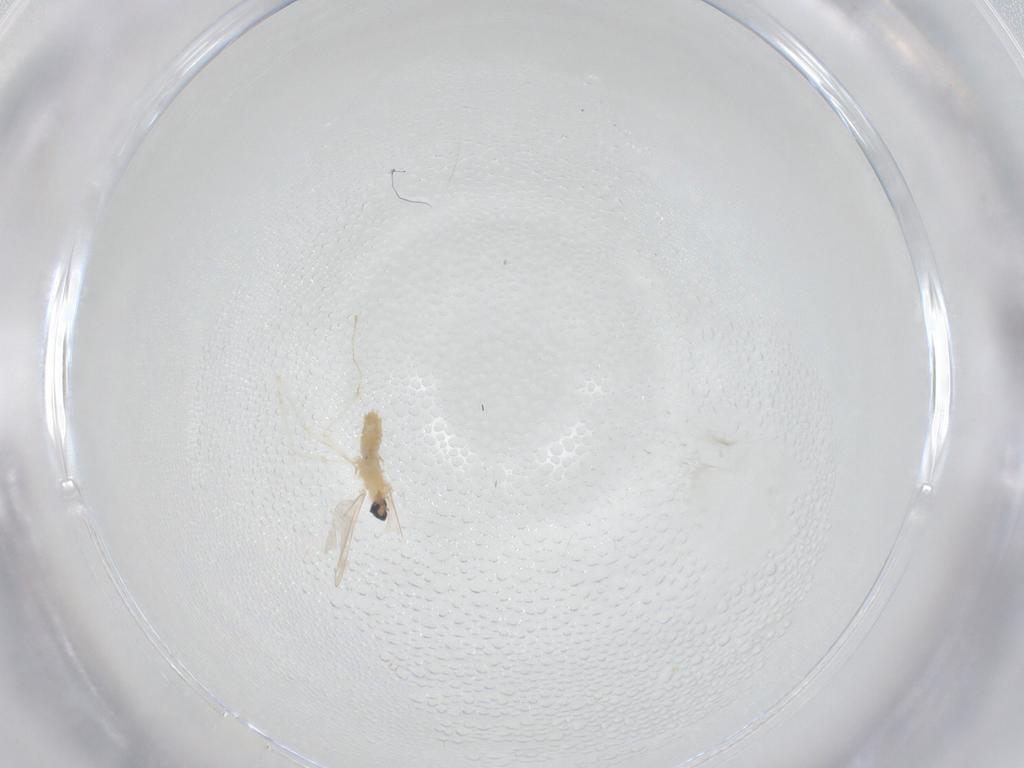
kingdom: Animalia
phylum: Arthropoda
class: Insecta
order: Diptera
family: Cecidomyiidae
